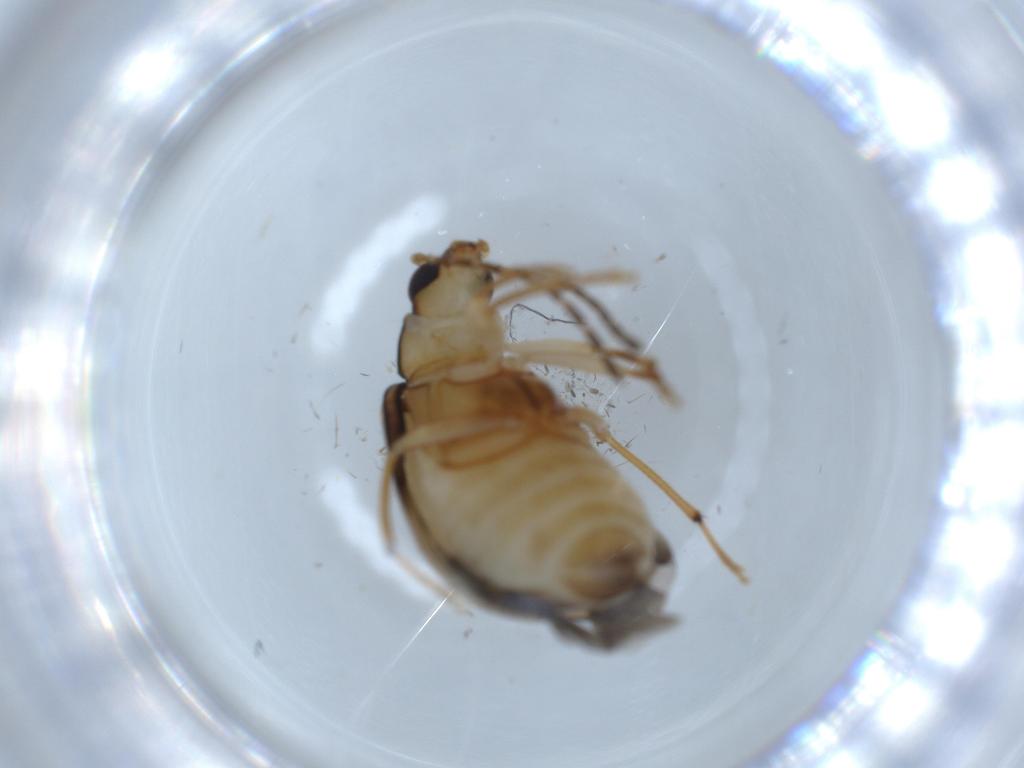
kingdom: Animalia
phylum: Arthropoda
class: Insecta
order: Coleoptera
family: Chrysomelidae
